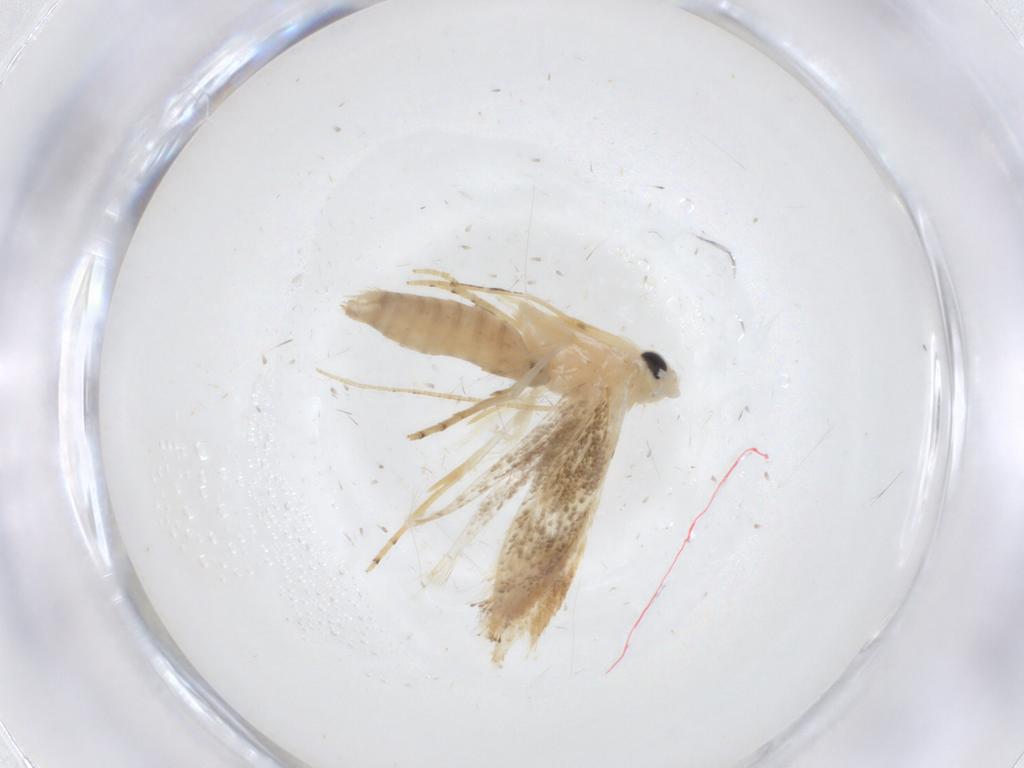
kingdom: Animalia
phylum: Arthropoda
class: Insecta
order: Lepidoptera
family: Gelechiidae
